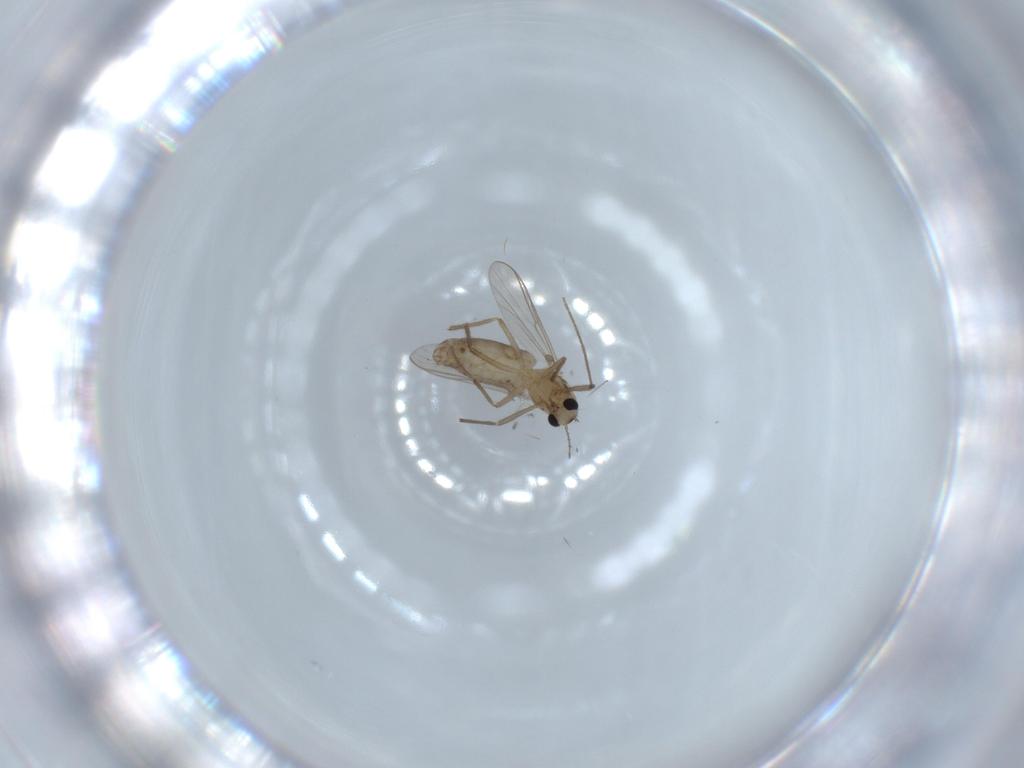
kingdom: Animalia
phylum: Arthropoda
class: Insecta
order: Diptera
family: Chironomidae
